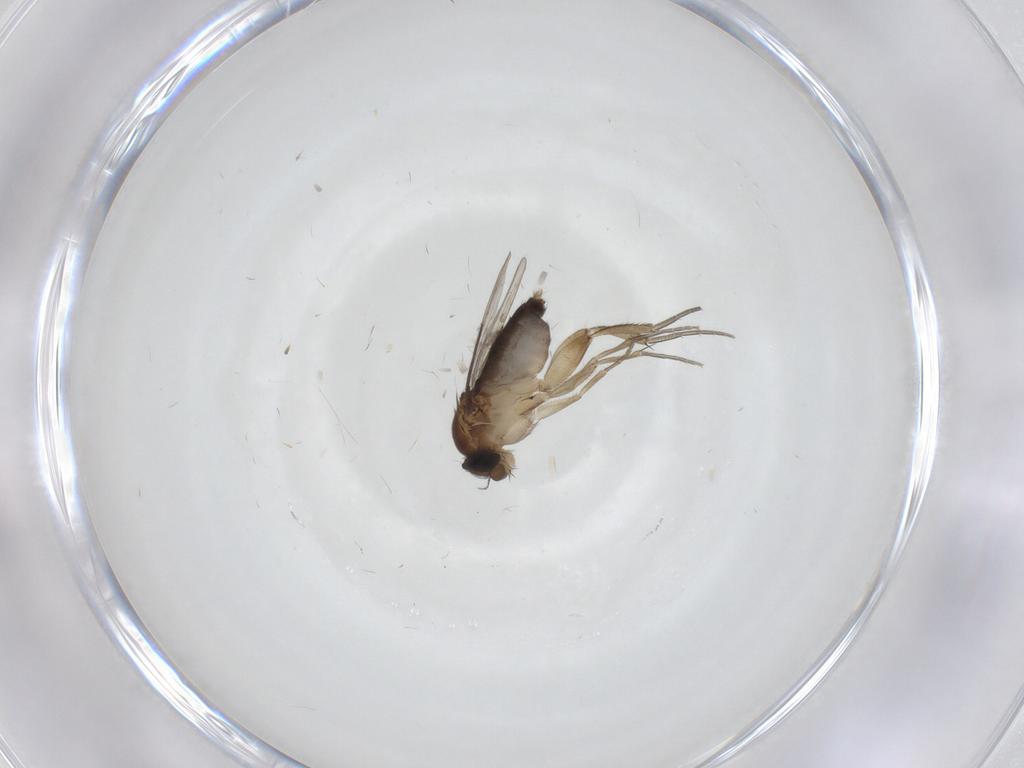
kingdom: Animalia
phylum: Arthropoda
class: Insecta
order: Diptera
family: Phoridae
